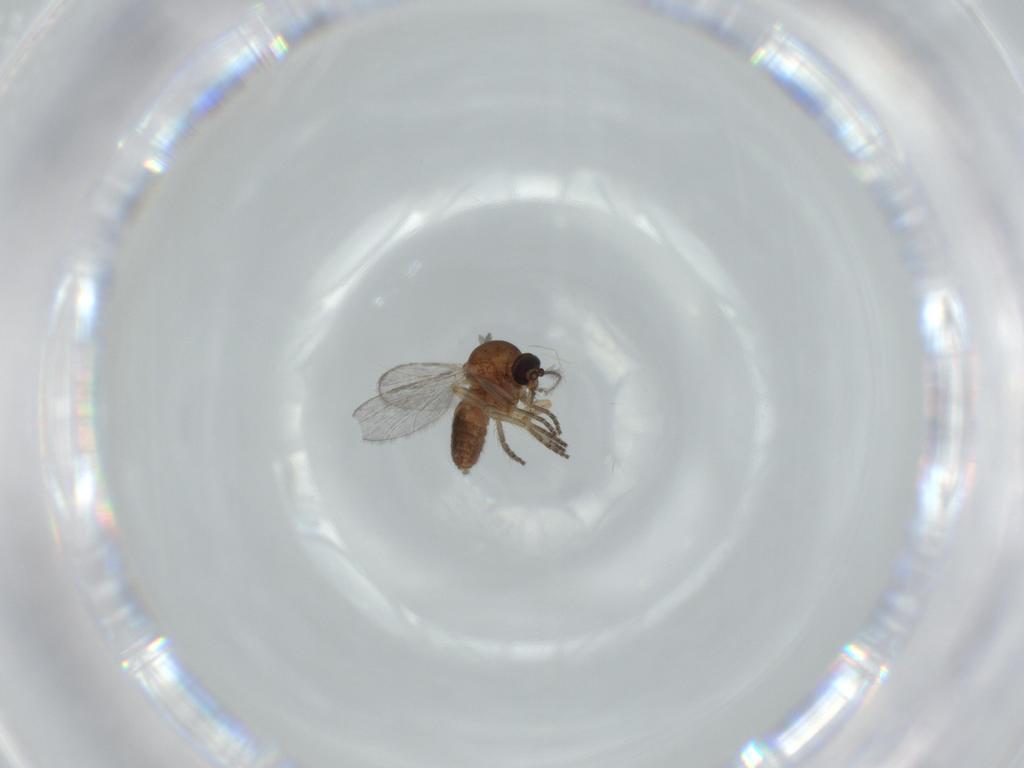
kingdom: Animalia
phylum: Arthropoda
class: Insecta
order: Diptera
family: Ceratopogonidae
